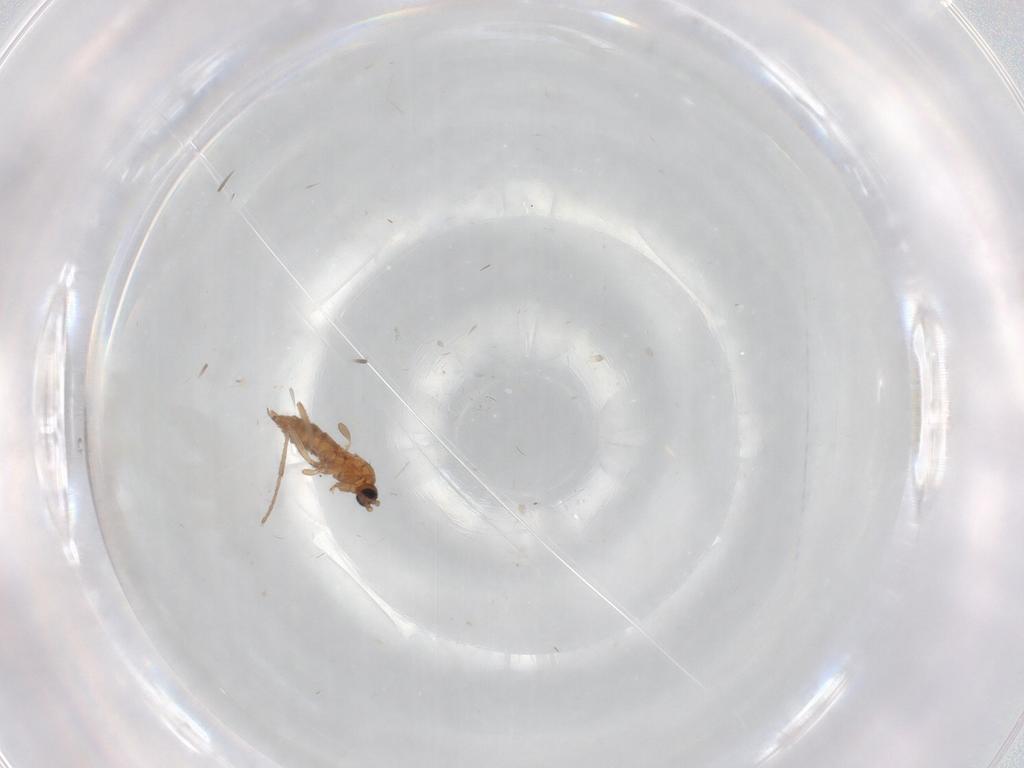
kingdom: Animalia
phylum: Arthropoda
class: Insecta
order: Diptera
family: Sciaridae
